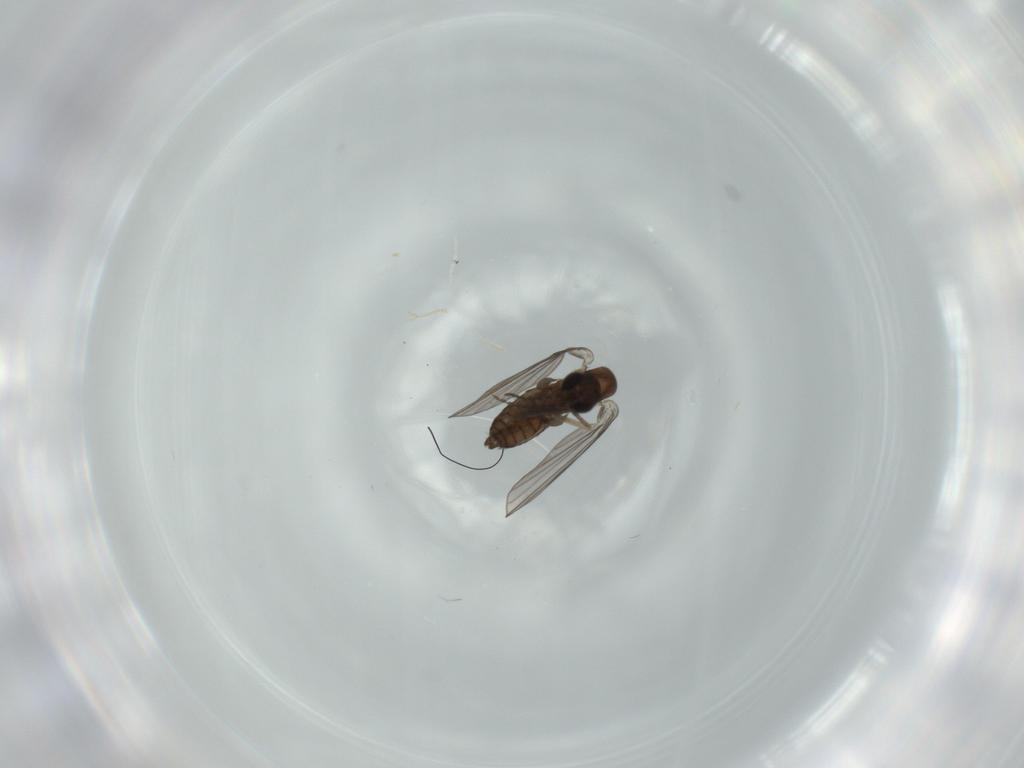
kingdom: Animalia
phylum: Arthropoda
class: Insecta
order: Diptera
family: Psychodidae
